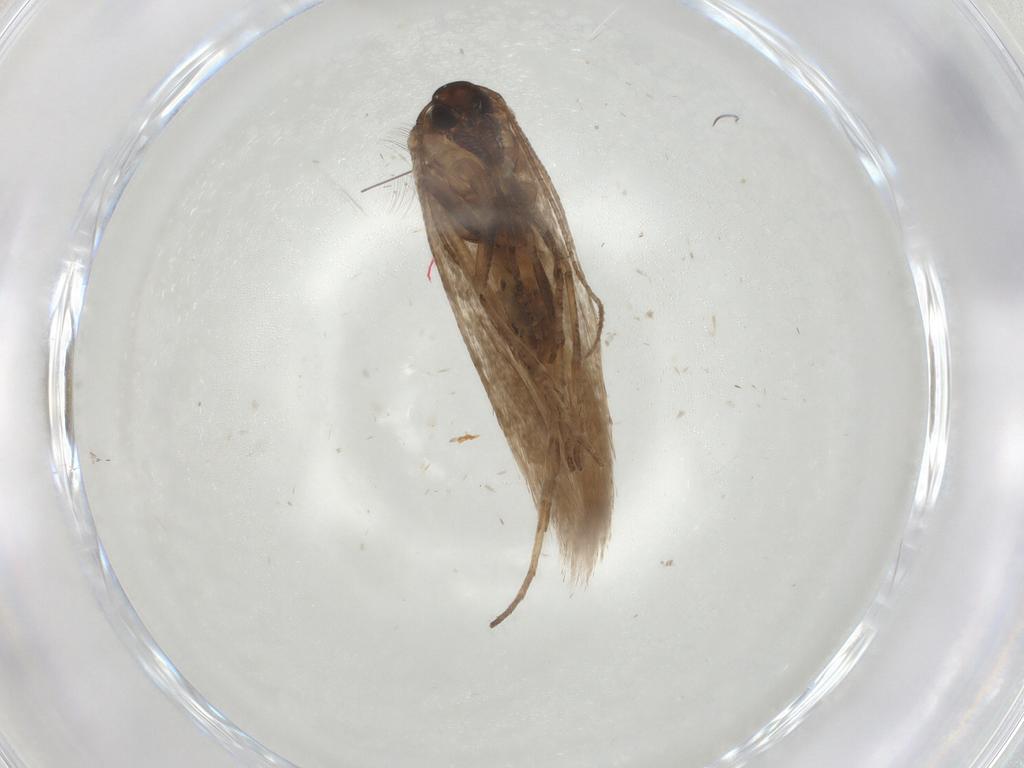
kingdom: Animalia
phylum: Arthropoda
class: Insecta
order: Lepidoptera
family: Gelechiidae
